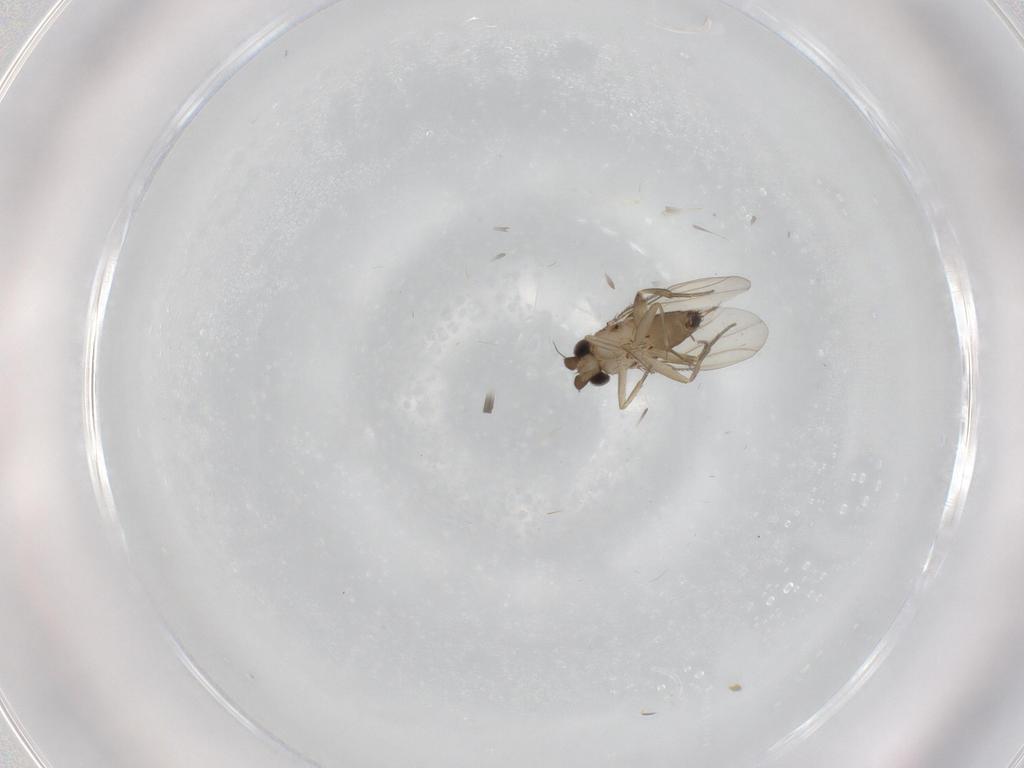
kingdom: Animalia
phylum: Arthropoda
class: Insecta
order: Diptera
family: Phoridae
